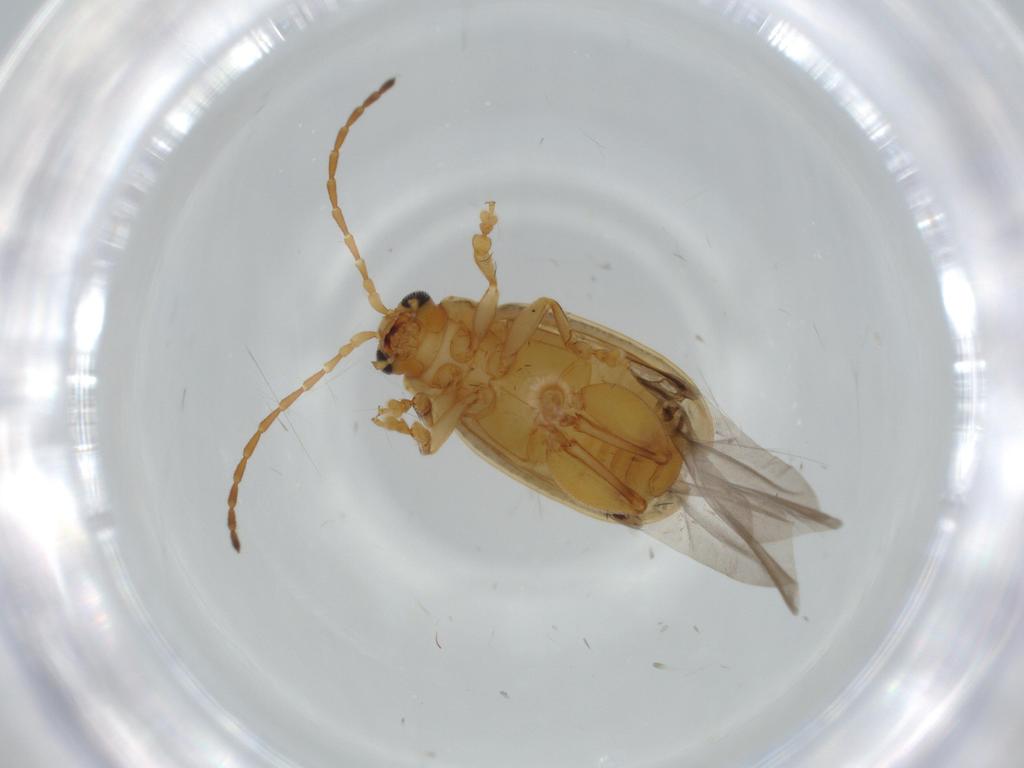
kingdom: Animalia
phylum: Arthropoda
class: Insecta
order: Coleoptera
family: Chrysomelidae
